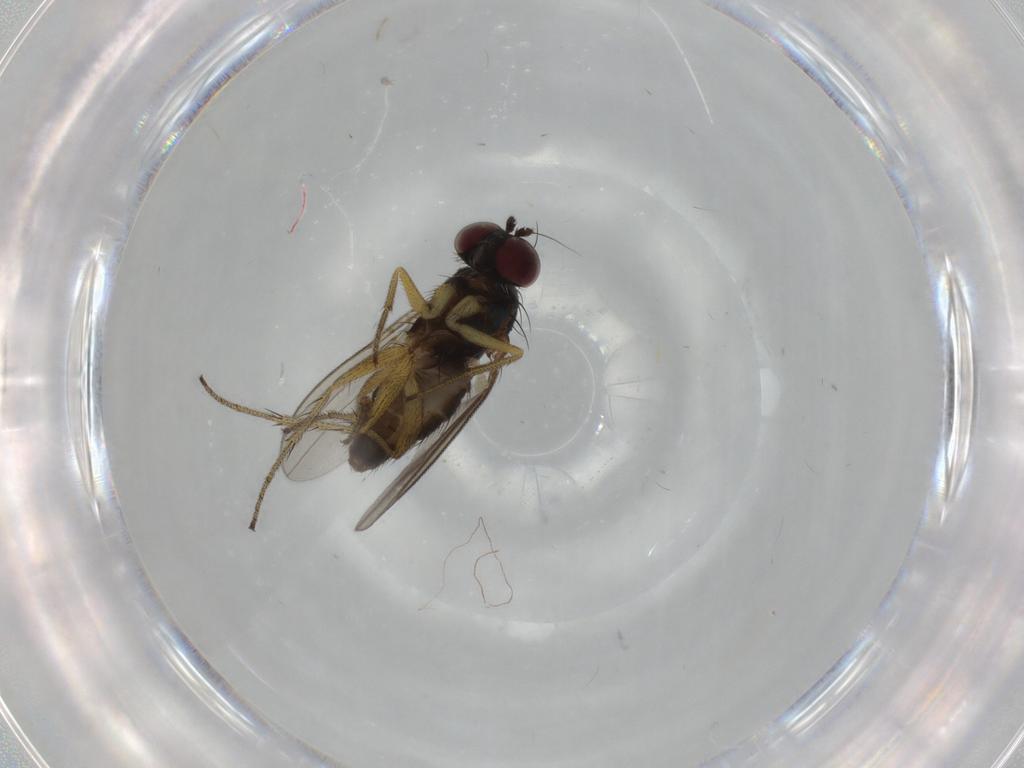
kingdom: Animalia
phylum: Arthropoda
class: Insecta
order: Diptera
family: Dolichopodidae
